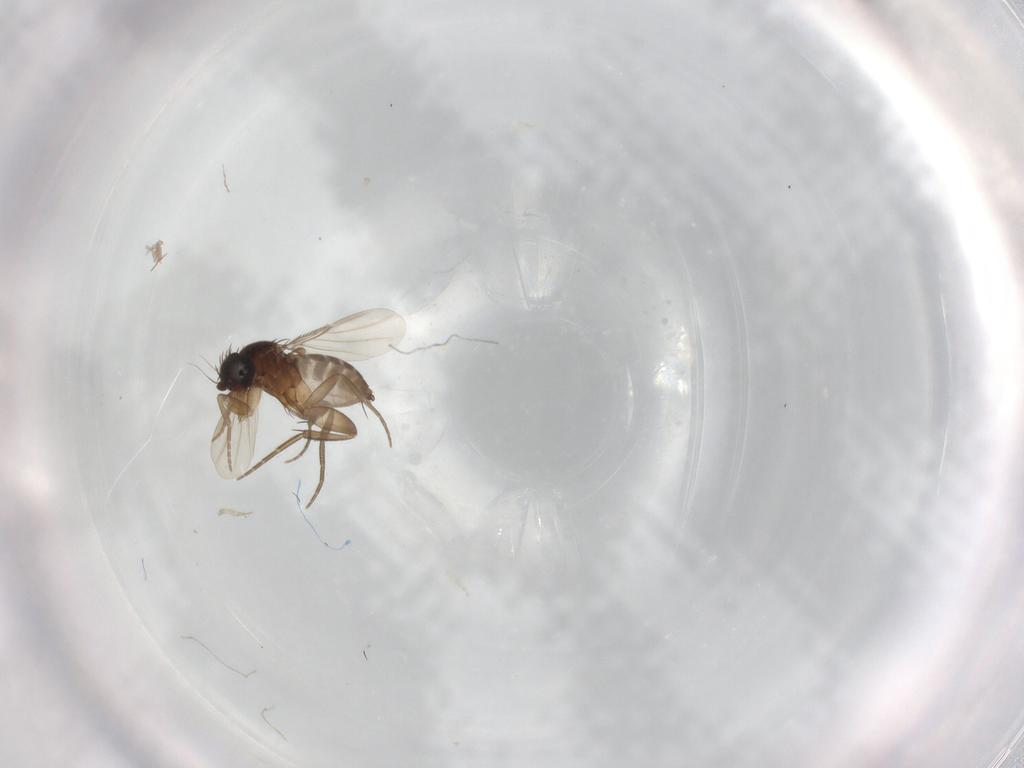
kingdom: Animalia
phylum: Arthropoda
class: Insecta
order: Diptera
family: Phoridae
